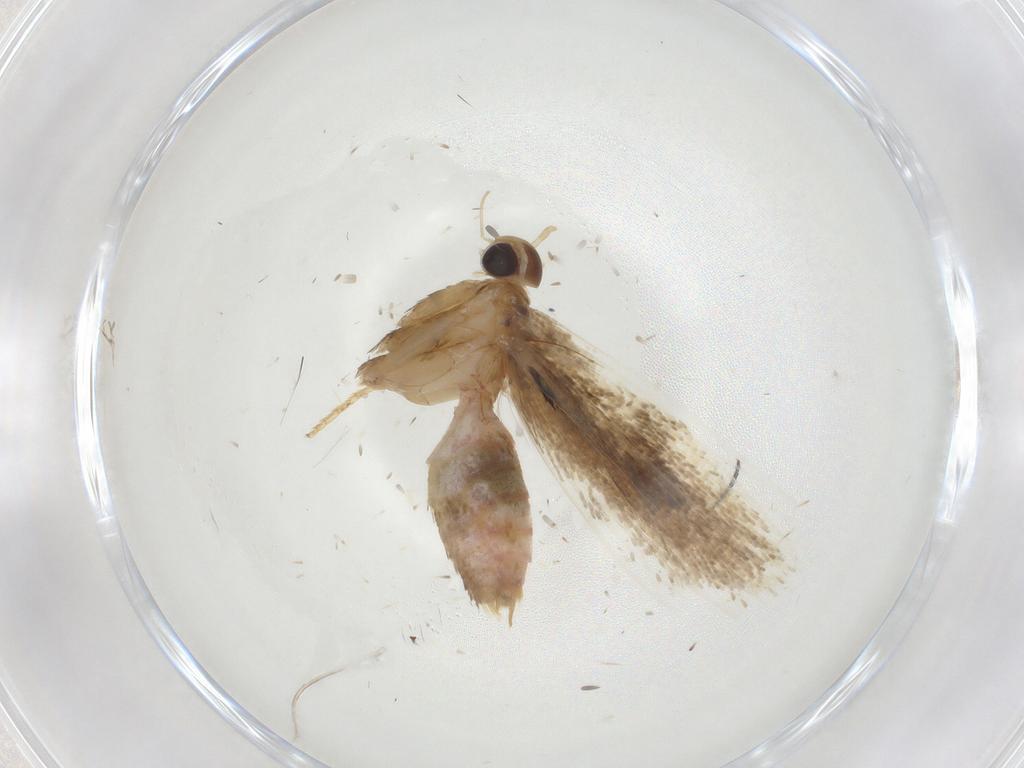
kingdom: Animalia
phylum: Arthropoda
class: Insecta
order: Lepidoptera
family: Gelechiidae
